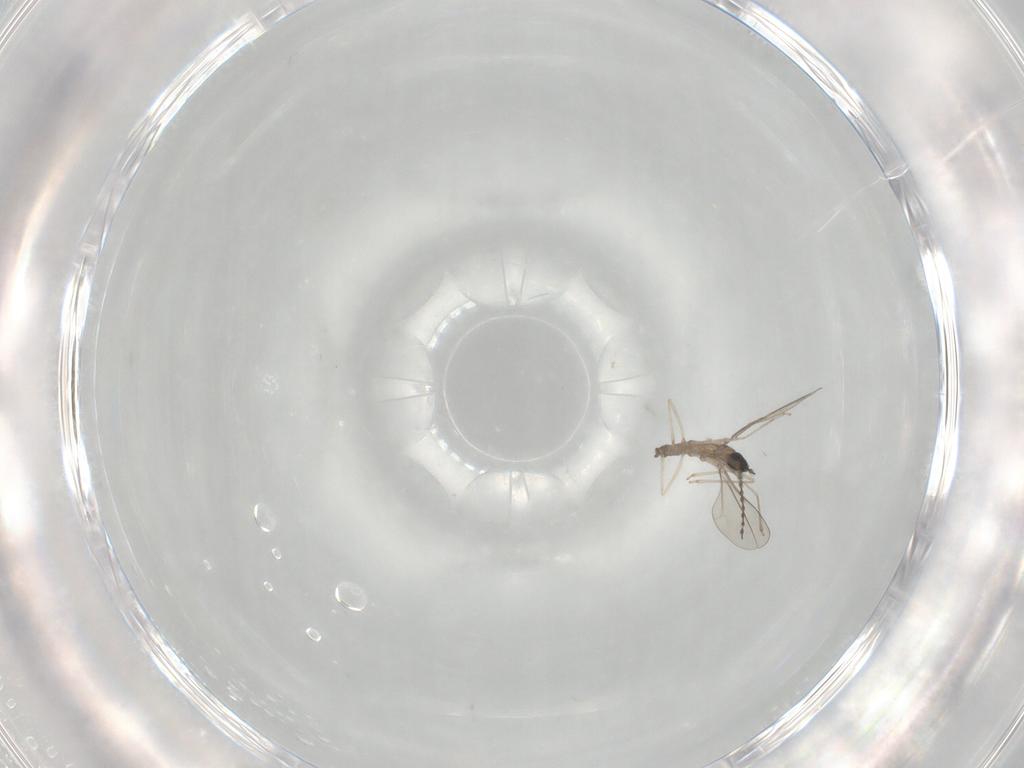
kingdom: Animalia
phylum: Arthropoda
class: Insecta
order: Diptera
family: Cecidomyiidae
